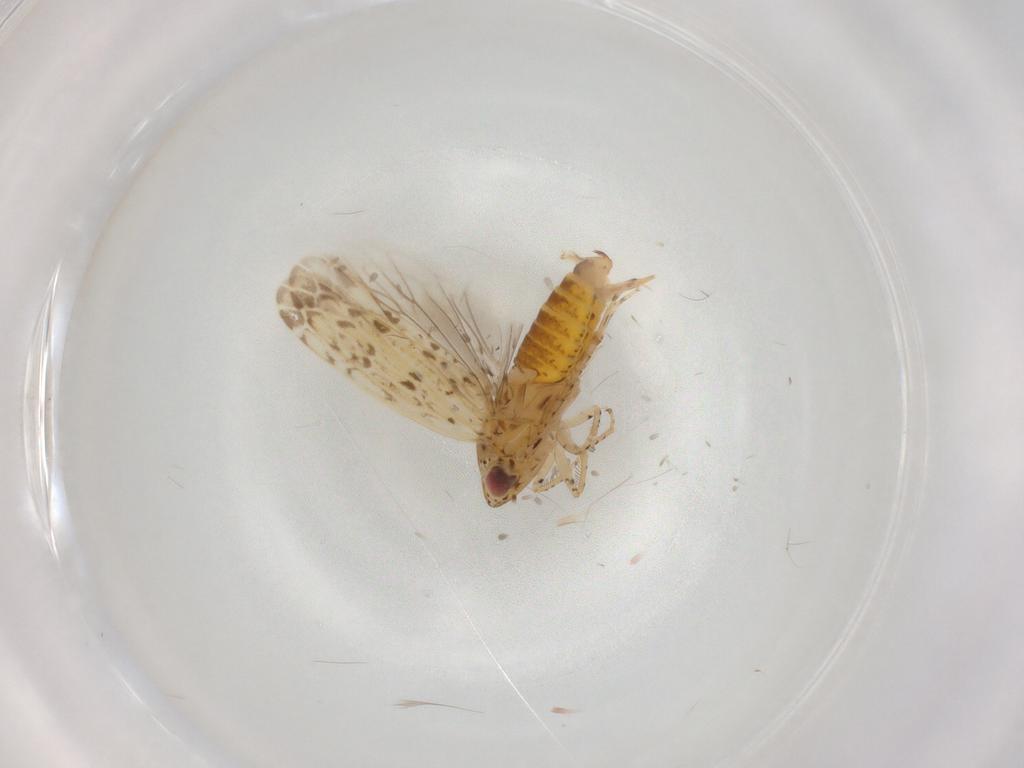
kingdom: Animalia
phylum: Arthropoda
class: Insecta
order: Hemiptera
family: Cicadellidae
